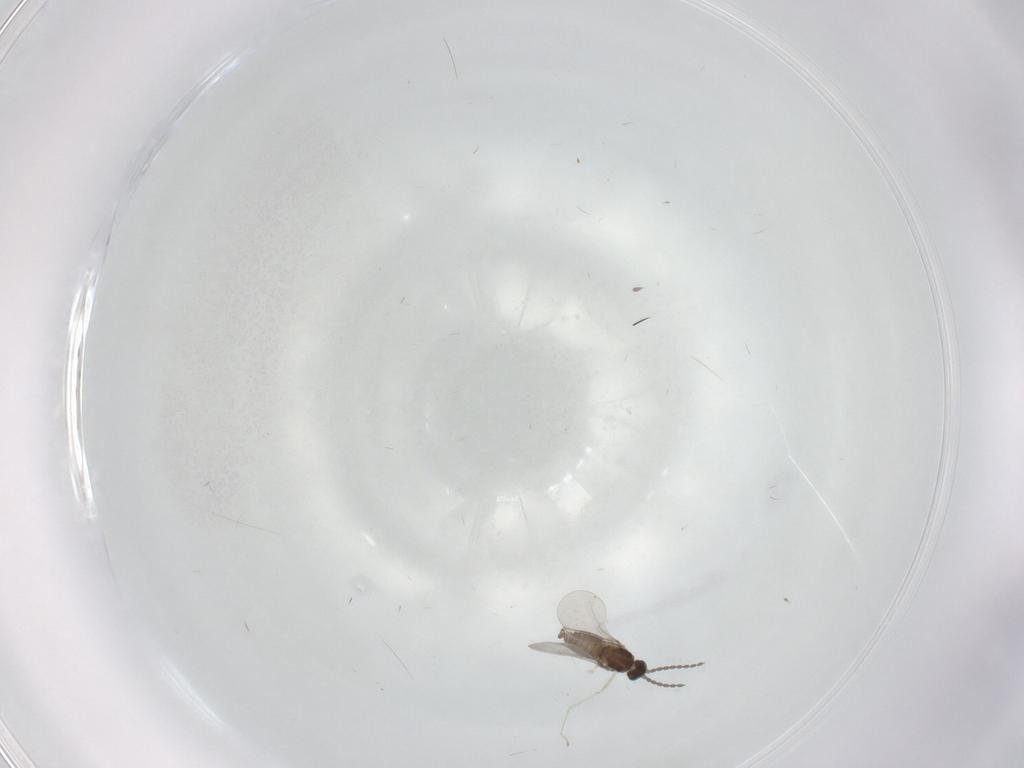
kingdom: Animalia
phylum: Arthropoda
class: Insecta
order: Diptera
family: Ceratopogonidae
